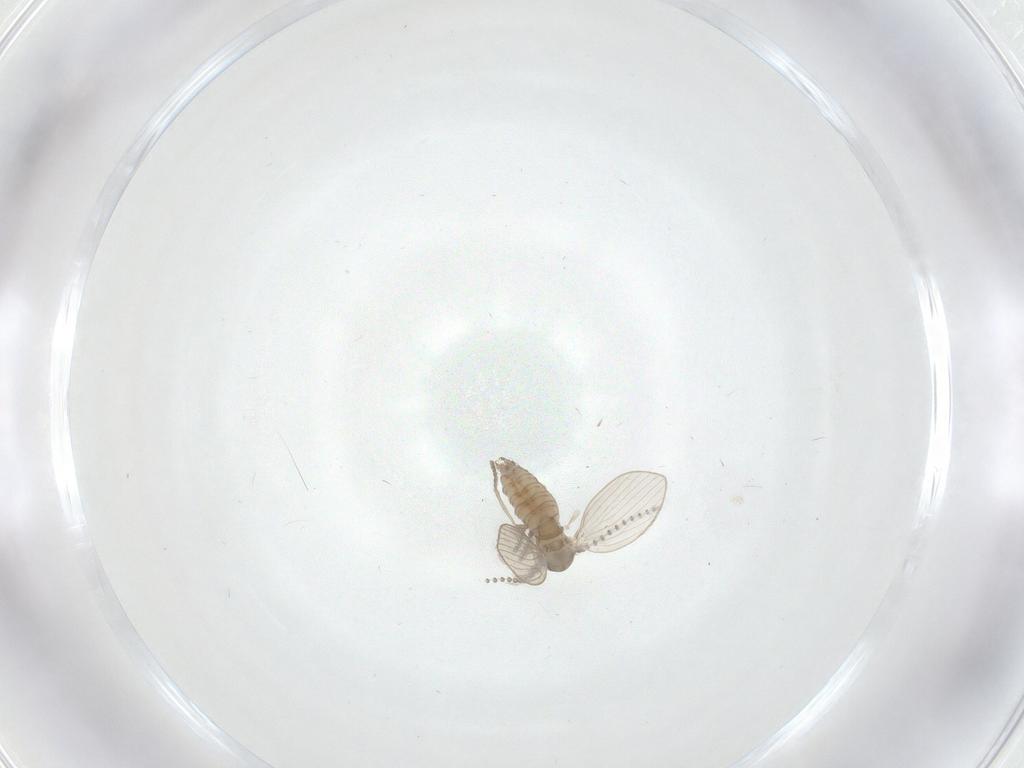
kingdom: Animalia
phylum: Arthropoda
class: Insecta
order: Diptera
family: Psychodidae
